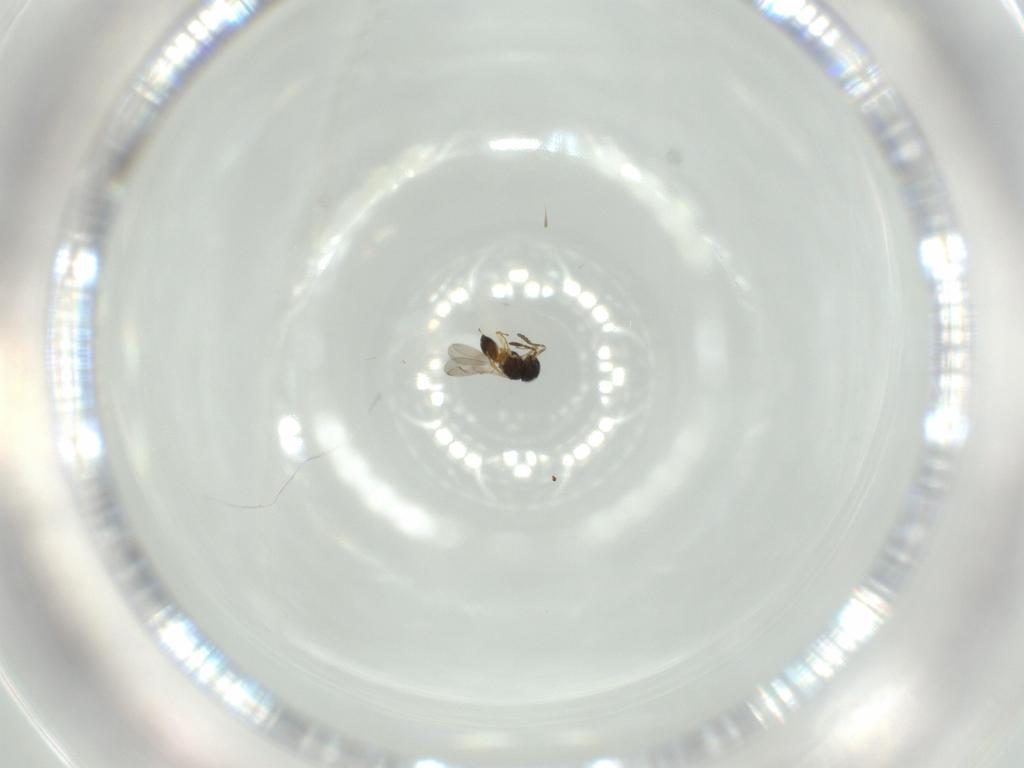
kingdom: Animalia
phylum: Arthropoda
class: Insecta
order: Hymenoptera
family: Scelionidae
